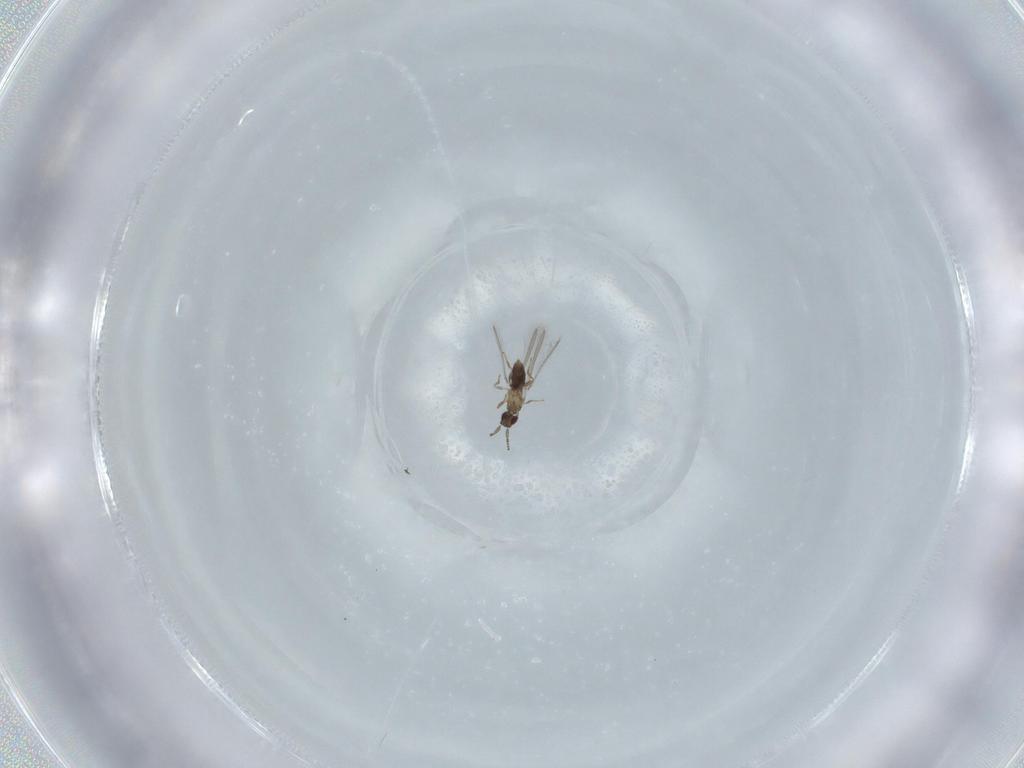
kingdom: Animalia
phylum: Arthropoda
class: Insecta
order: Hymenoptera
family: Mymaridae
